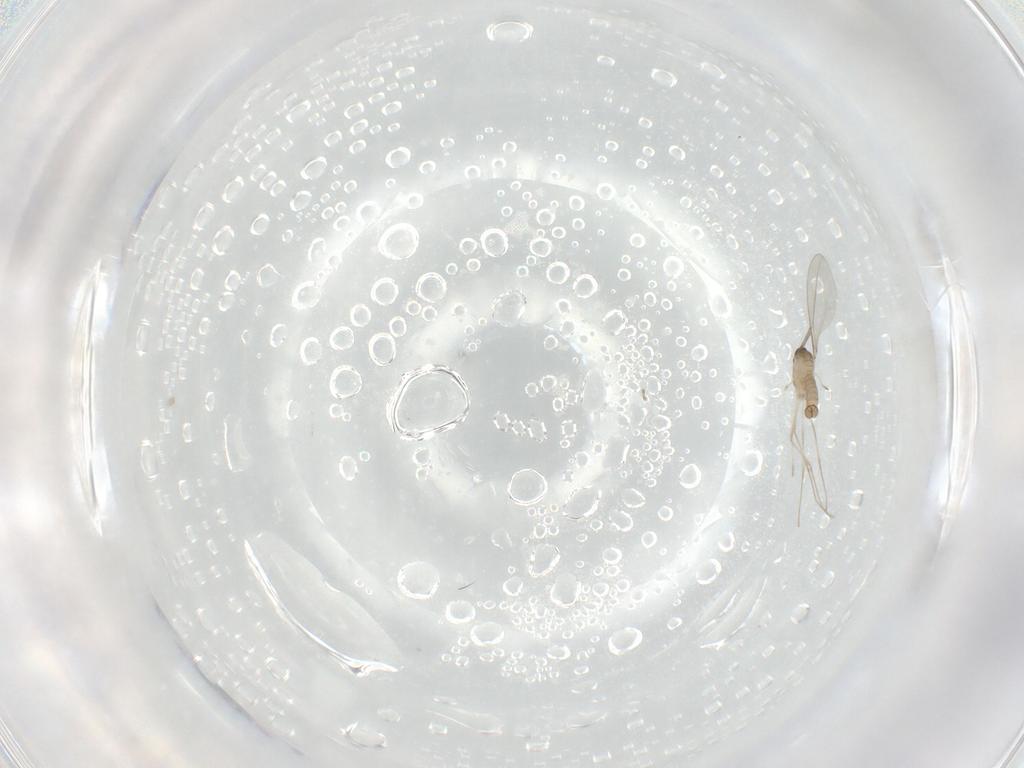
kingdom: Animalia
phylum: Arthropoda
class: Insecta
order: Diptera
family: Cecidomyiidae
